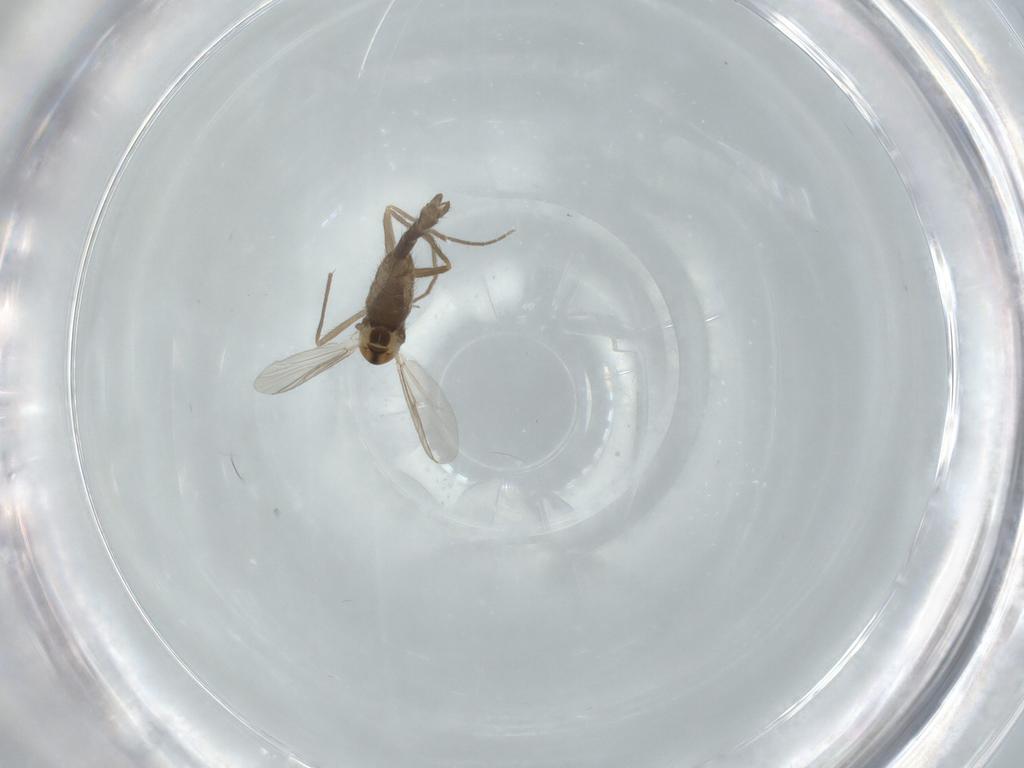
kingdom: Animalia
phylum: Arthropoda
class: Insecta
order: Diptera
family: Chironomidae
